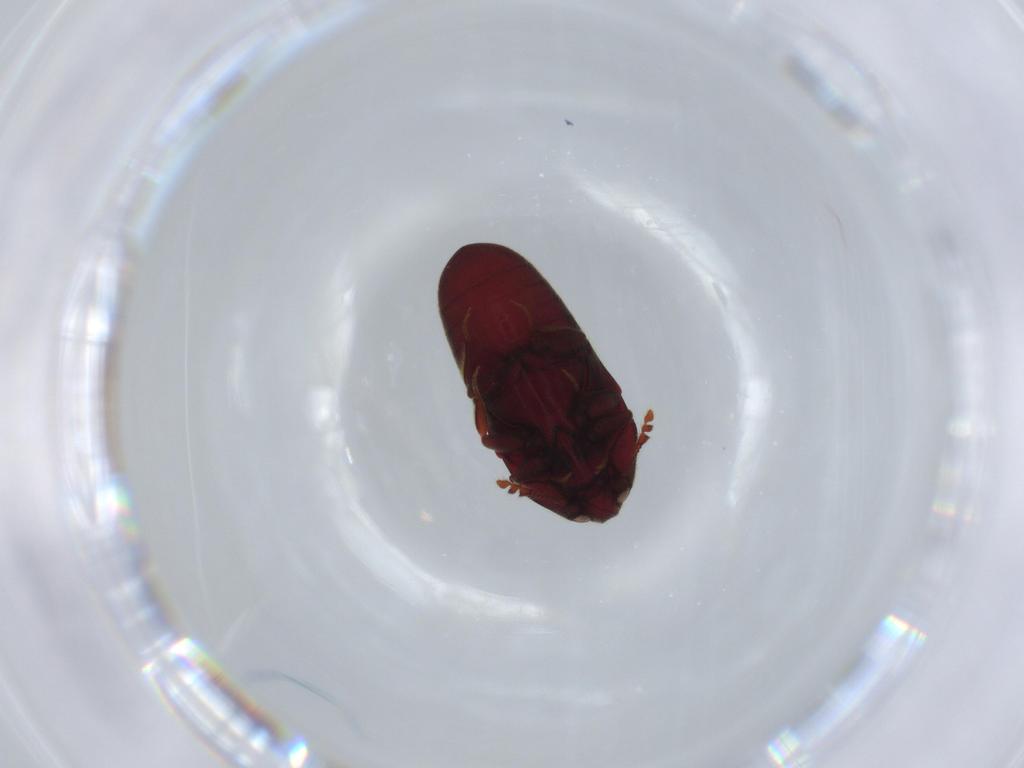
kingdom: Animalia
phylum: Arthropoda
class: Insecta
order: Coleoptera
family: Throscidae
